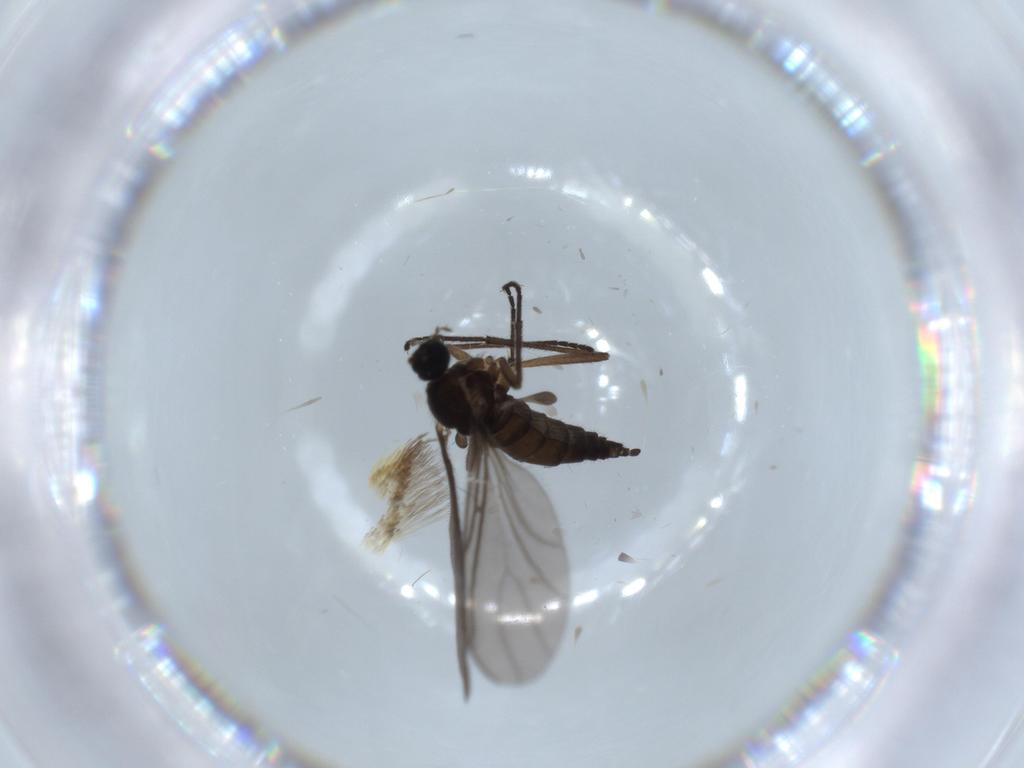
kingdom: Animalia
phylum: Arthropoda
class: Insecta
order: Diptera
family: Sciaridae
